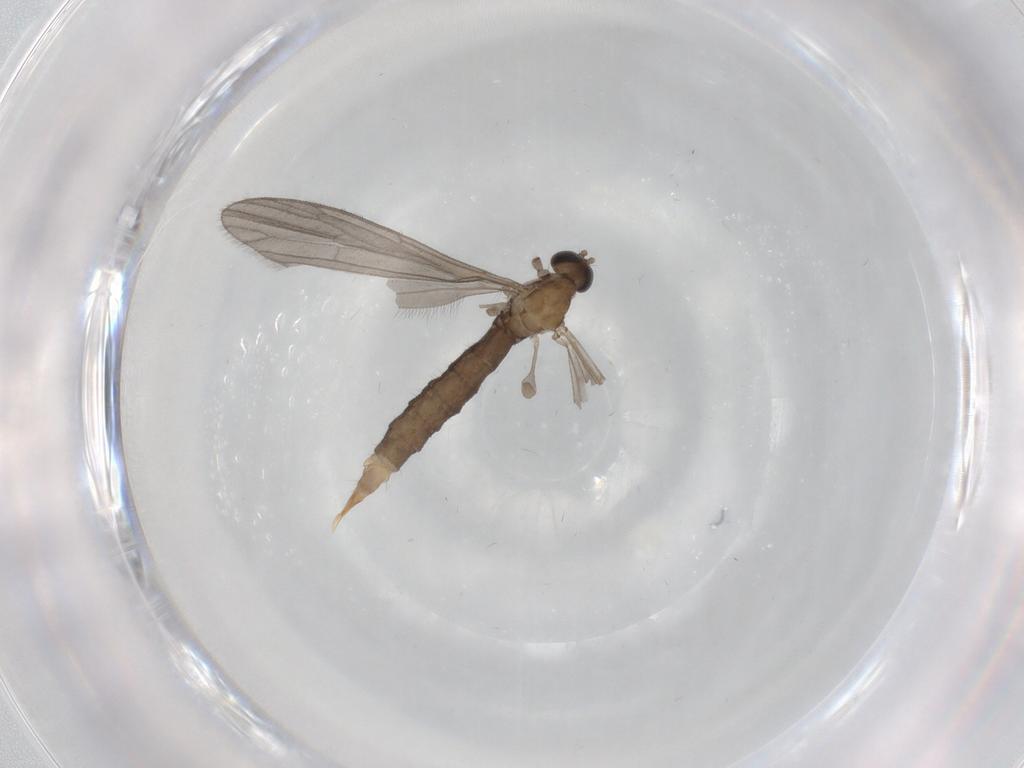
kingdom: Animalia
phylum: Arthropoda
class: Insecta
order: Diptera
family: Limoniidae
